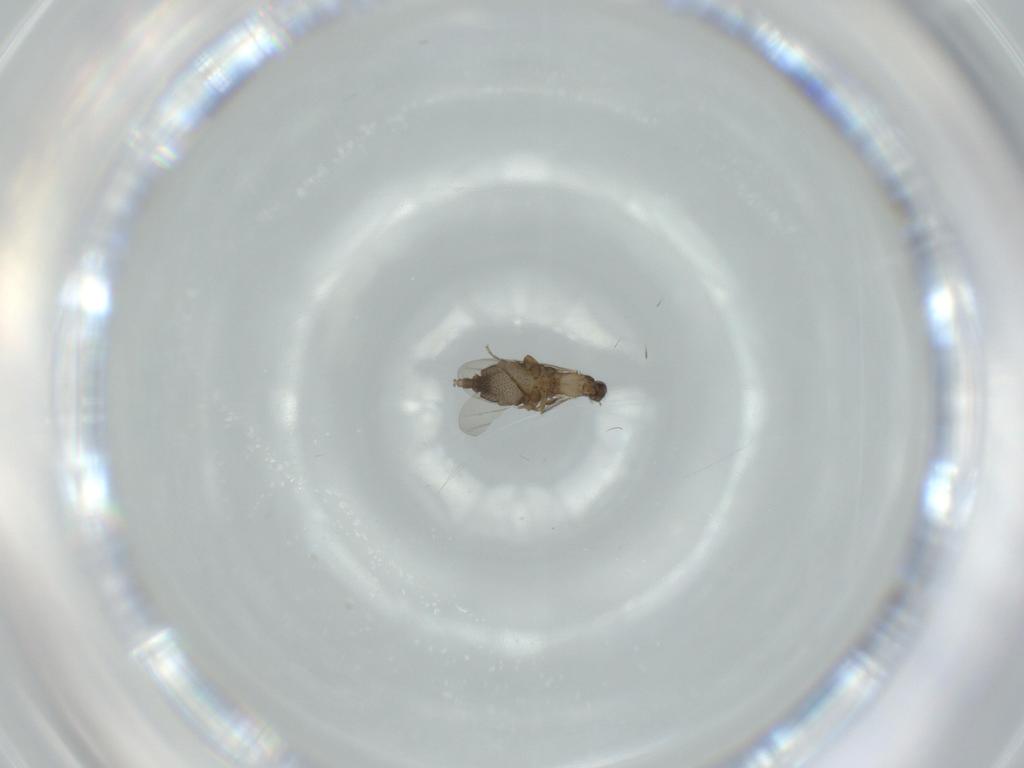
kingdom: Animalia
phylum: Arthropoda
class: Insecta
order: Diptera
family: Phoridae
